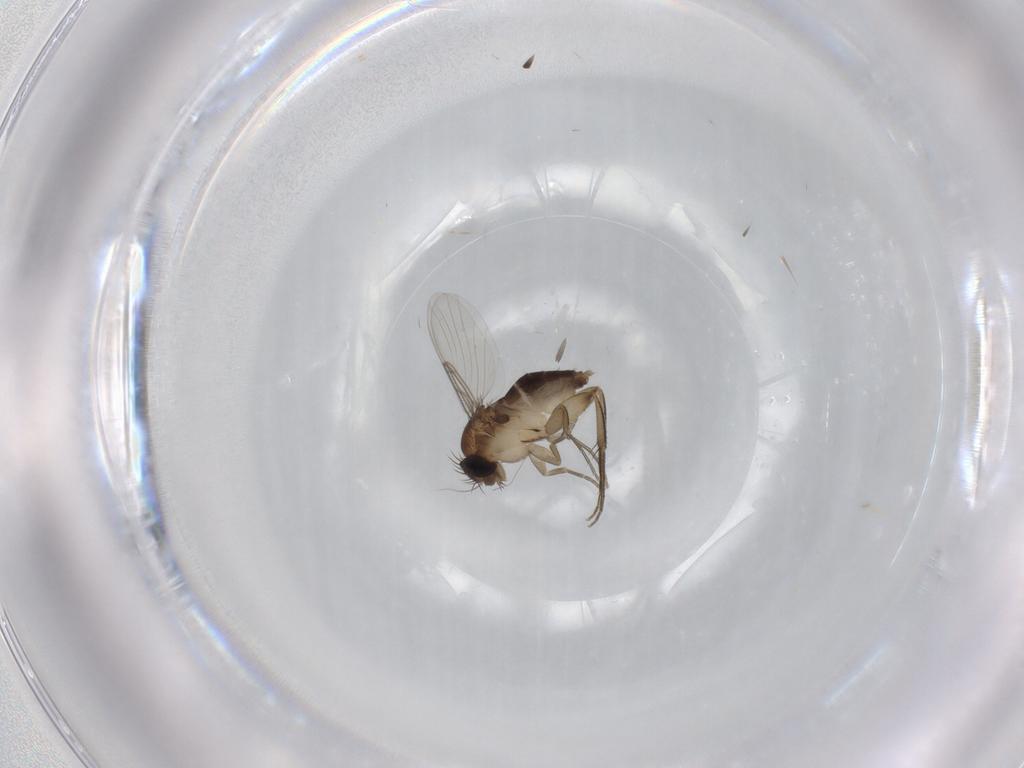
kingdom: Animalia
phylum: Arthropoda
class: Insecta
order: Diptera
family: Phoridae
